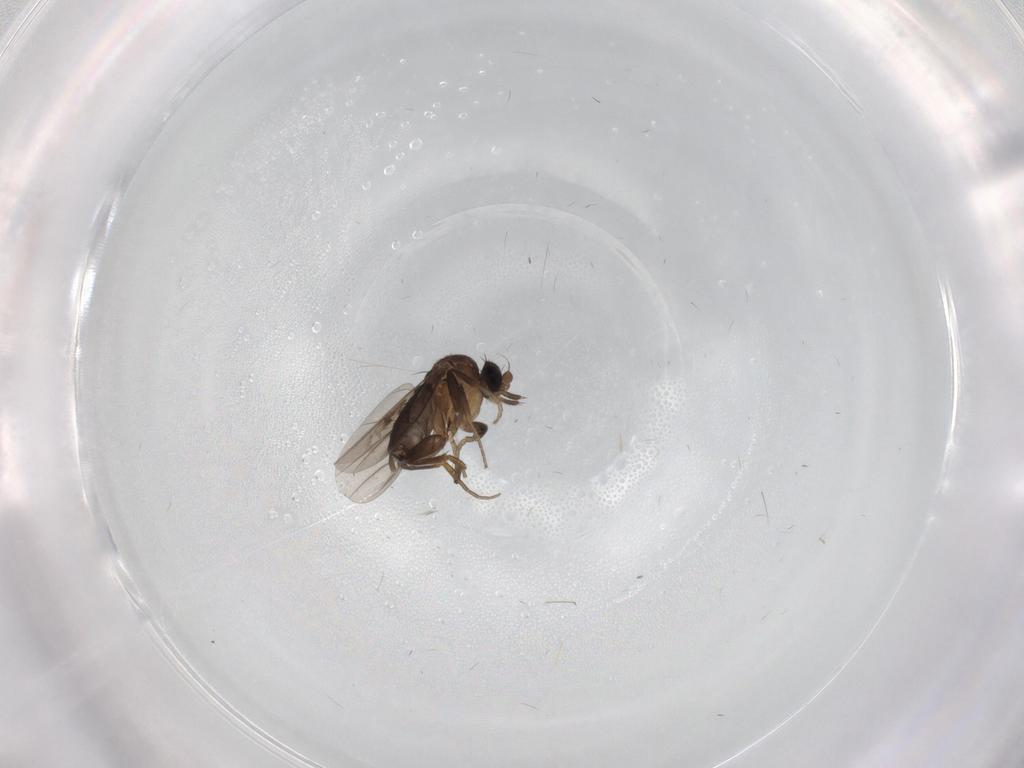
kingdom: Animalia
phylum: Arthropoda
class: Insecta
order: Diptera
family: Phoridae
